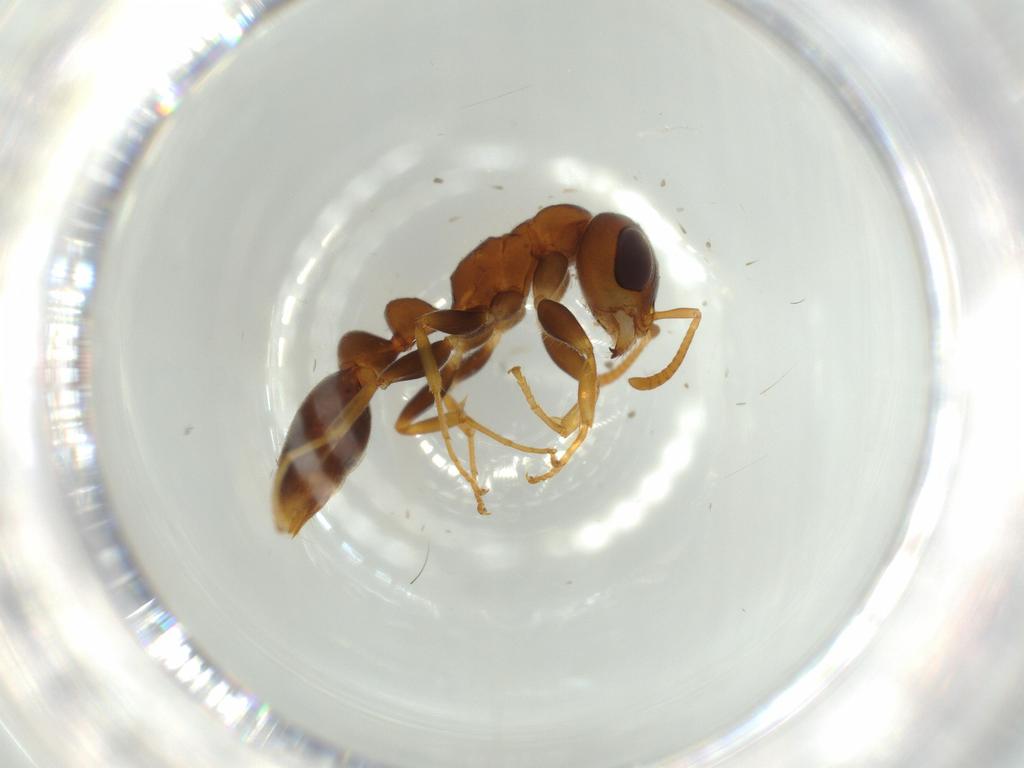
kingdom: Animalia
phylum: Arthropoda
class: Insecta
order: Hymenoptera
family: Formicidae
